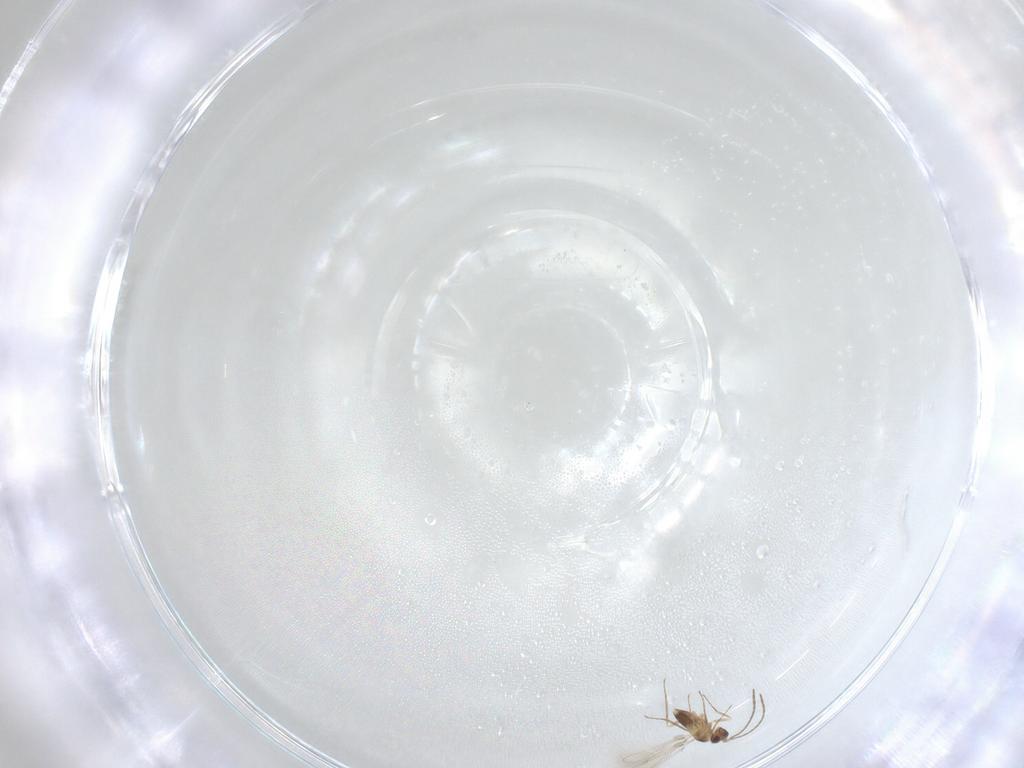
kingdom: Animalia
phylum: Arthropoda
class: Insecta
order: Hymenoptera
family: Mymaridae
